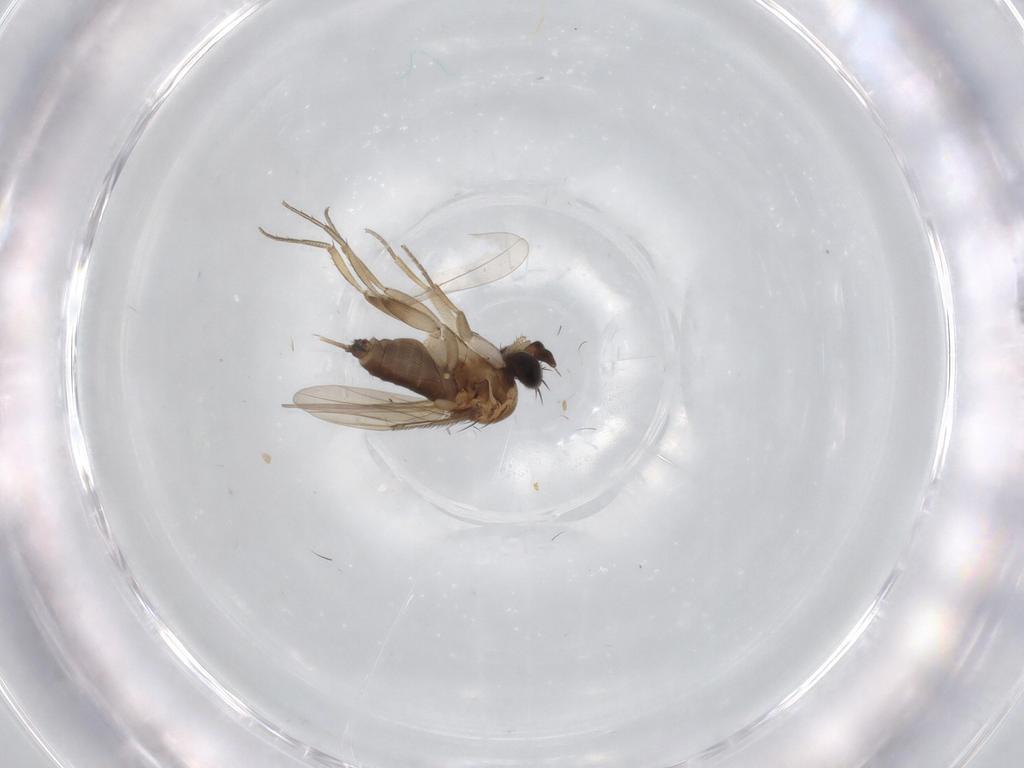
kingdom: Animalia
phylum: Arthropoda
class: Insecta
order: Diptera
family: Phoridae
